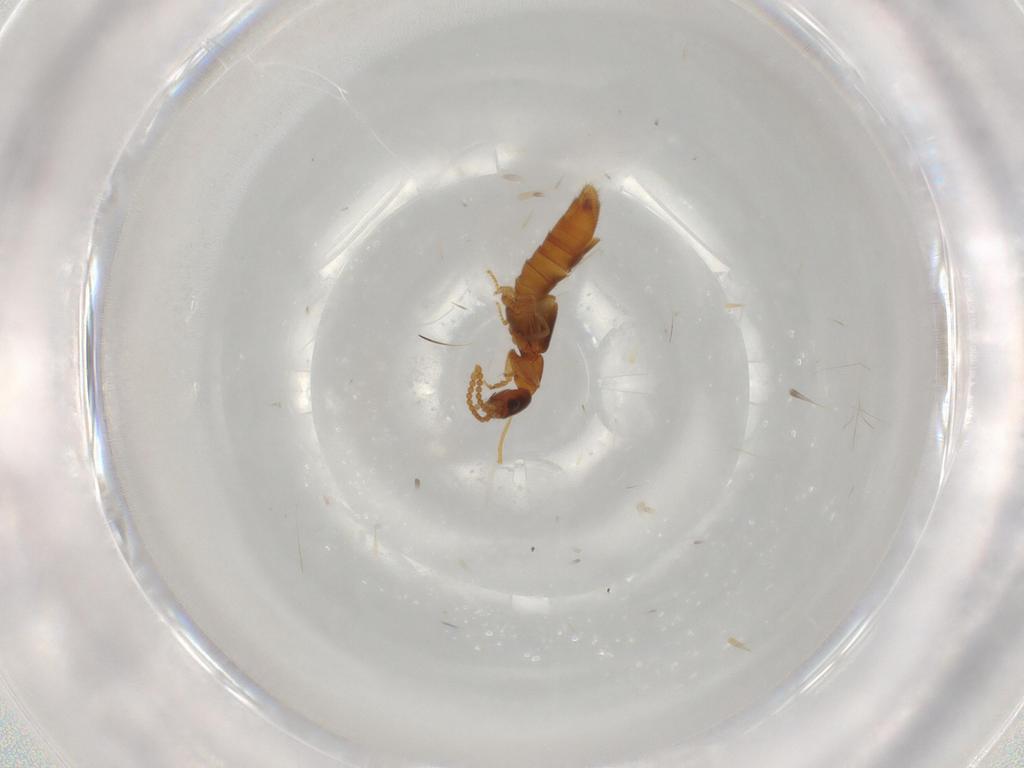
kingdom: Animalia
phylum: Arthropoda
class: Insecta
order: Coleoptera
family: Staphylinidae
